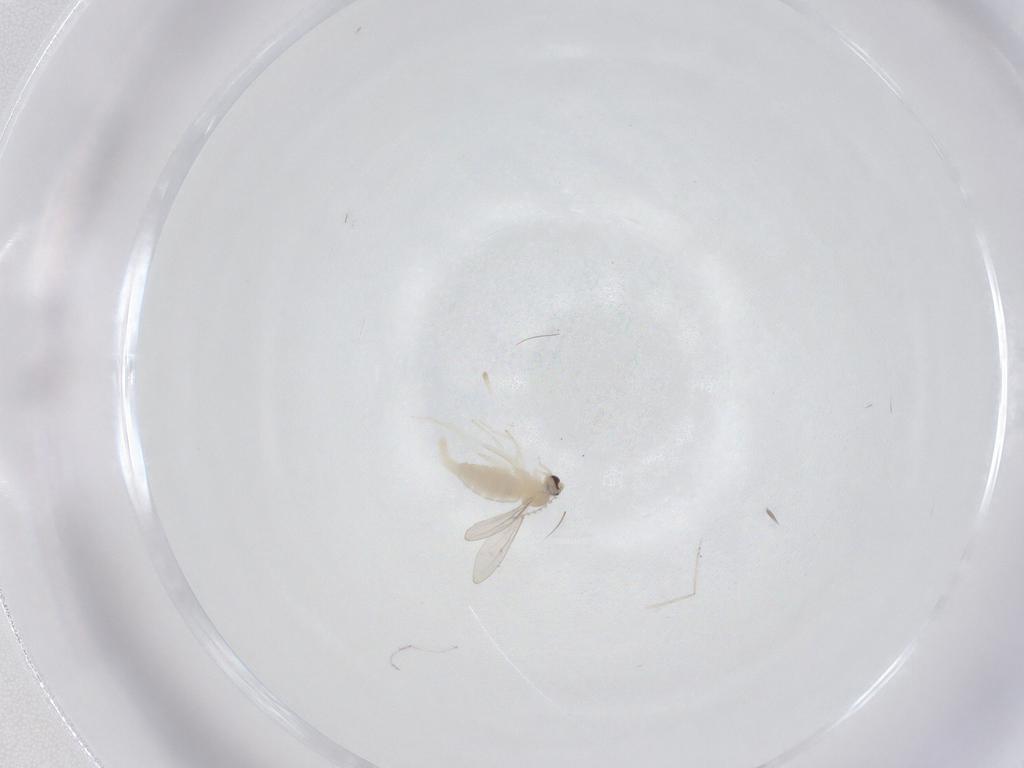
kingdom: Animalia
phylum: Arthropoda
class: Insecta
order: Diptera
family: Cecidomyiidae
